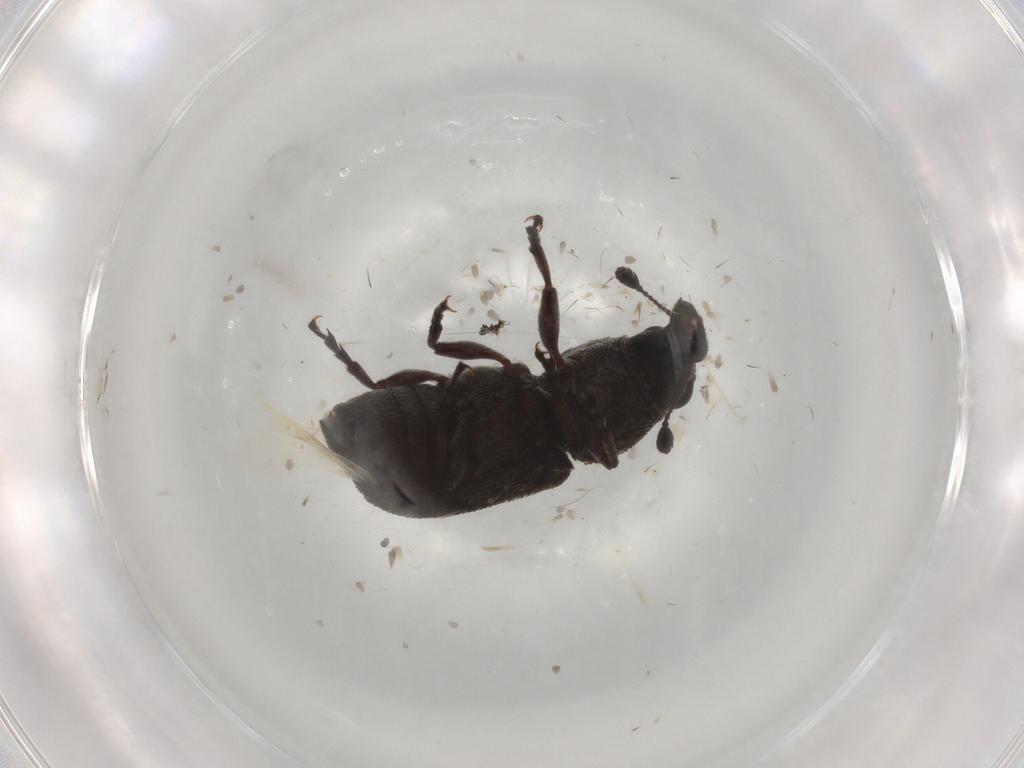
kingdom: Animalia
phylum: Arthropoda
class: Insecta
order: Coleoptera
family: Anthribidae
